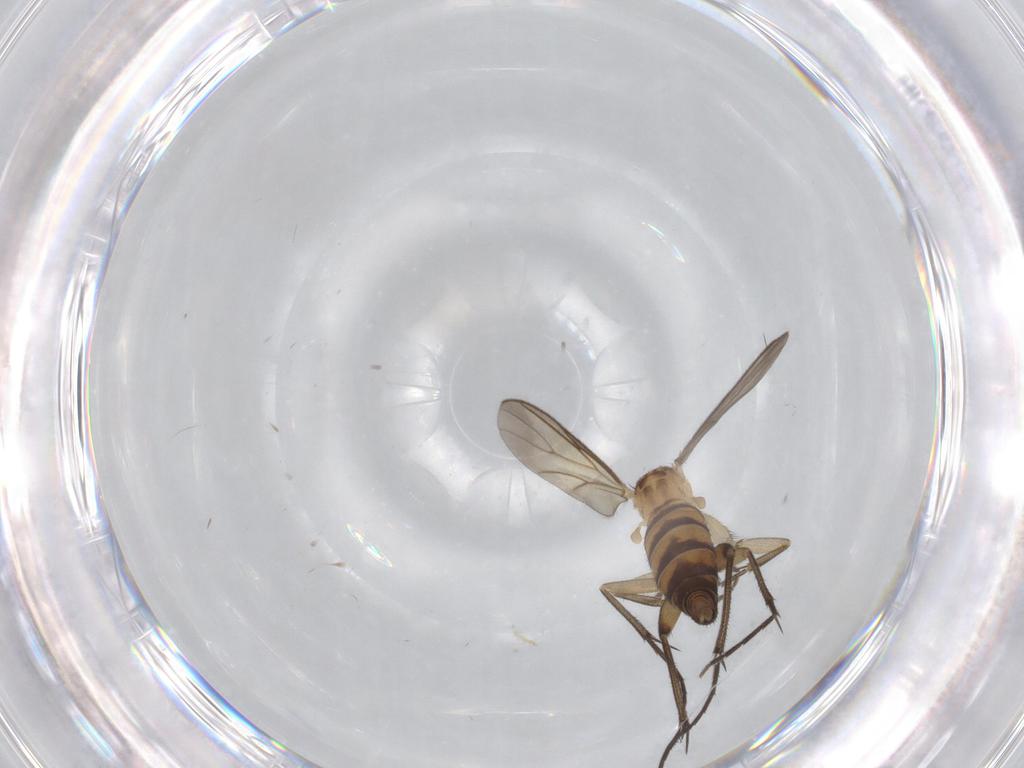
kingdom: Animalia
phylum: Arthropoda
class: Insecta
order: Diptera
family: Mycetophilidae
